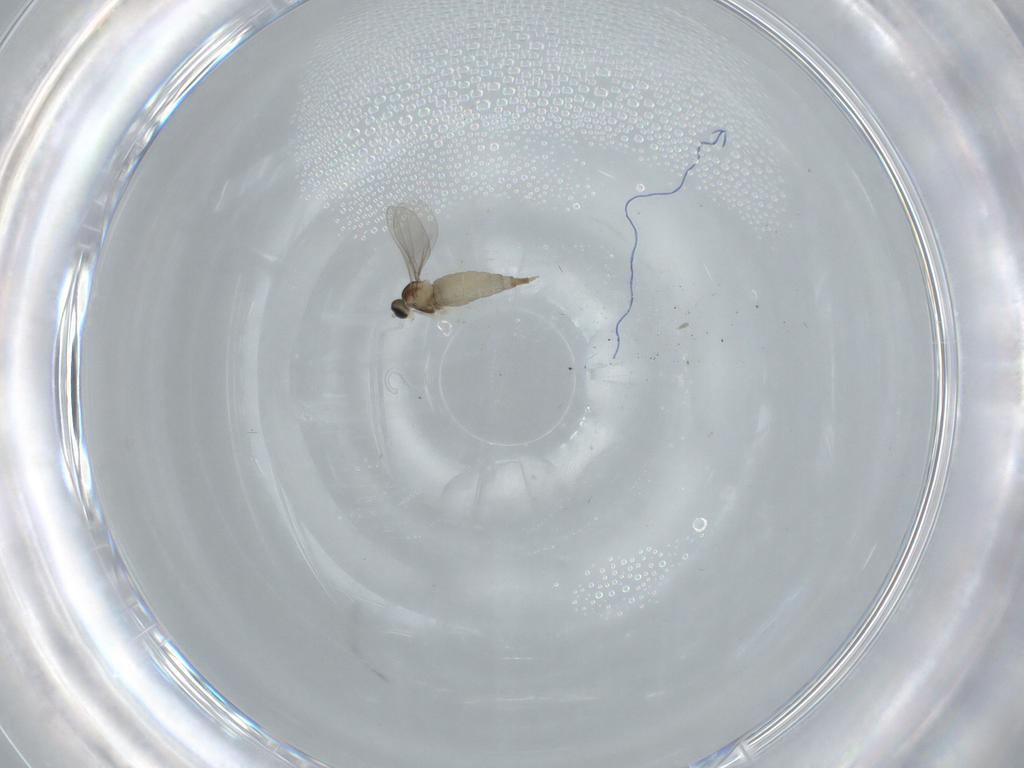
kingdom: Animalia
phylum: Arthropoda
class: Insecta
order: Diptera
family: Cecidomyiidae
